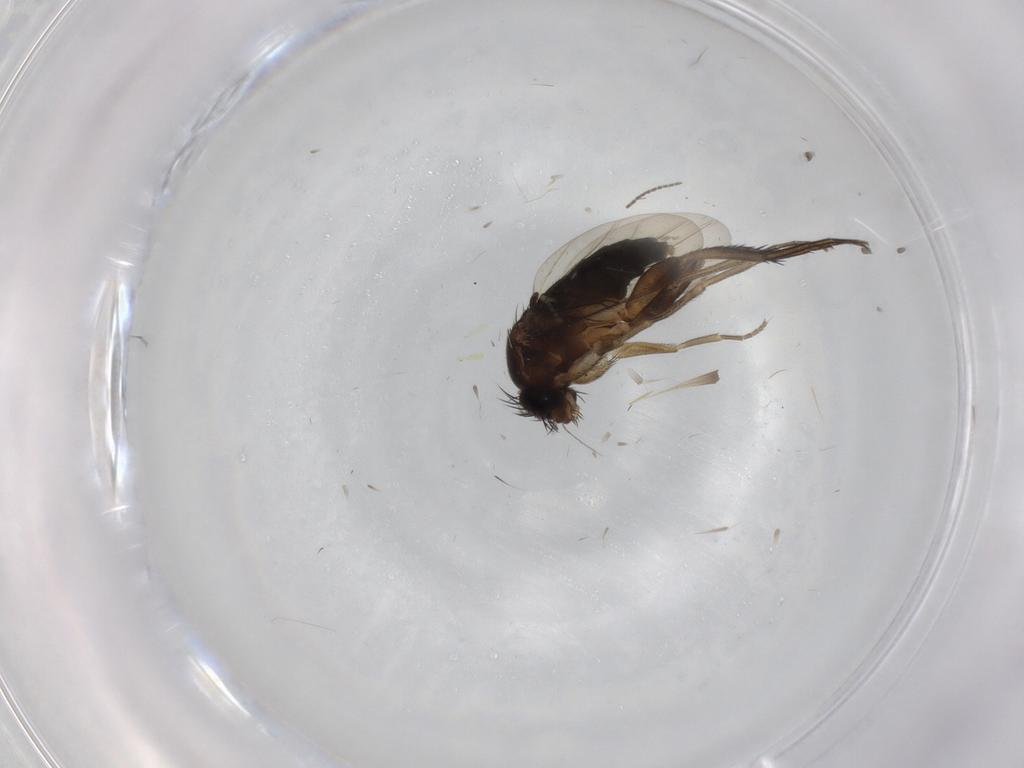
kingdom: Animalia
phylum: Arthropoda
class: Insecta
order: Diptera
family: Phoridae
